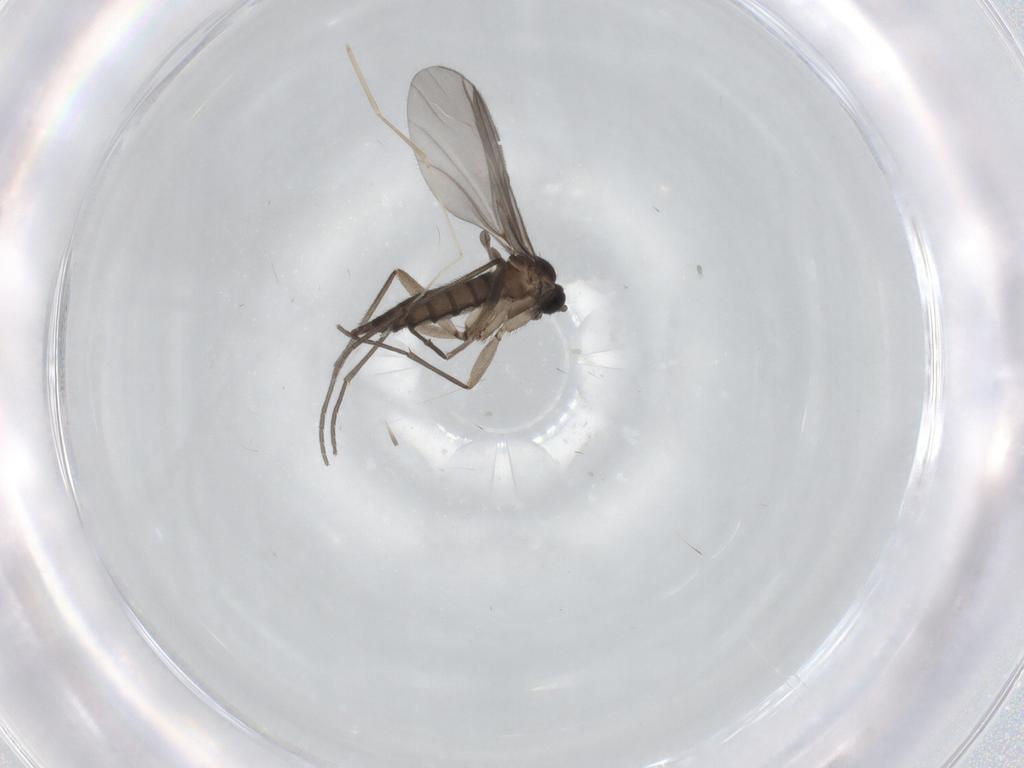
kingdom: Animalia
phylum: Arthropoda
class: Insecta
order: Diptera
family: Sciaridae
